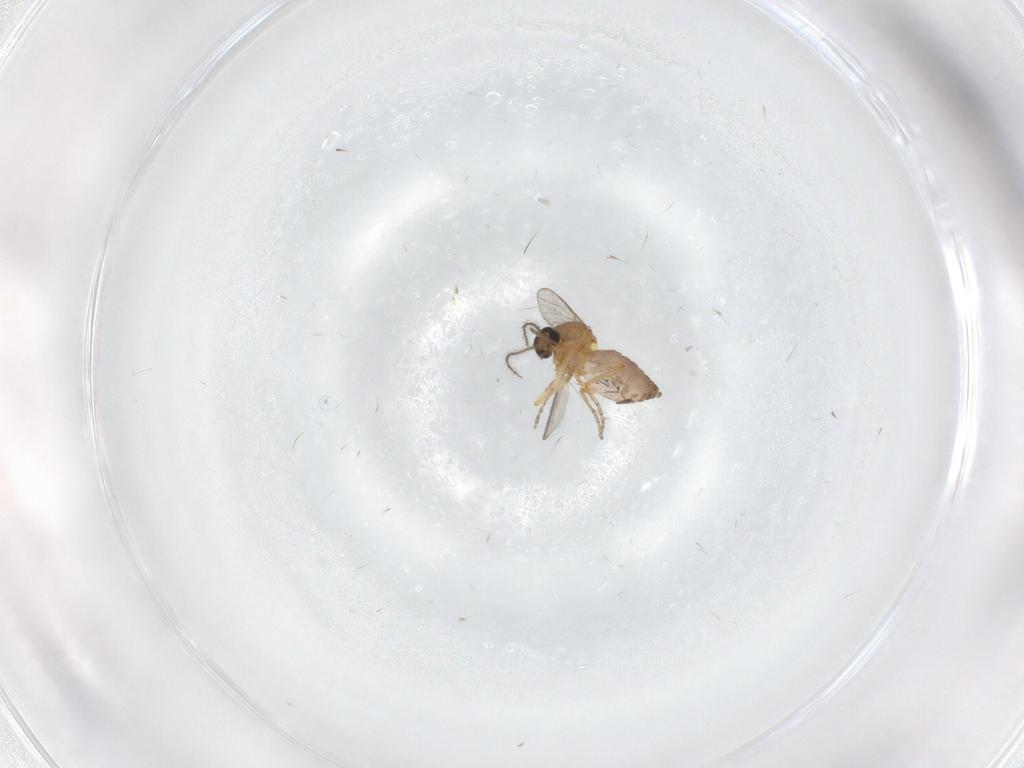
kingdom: Animalia
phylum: Arthropoda
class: Insecta
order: Diptera
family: Ceratopogonidae
